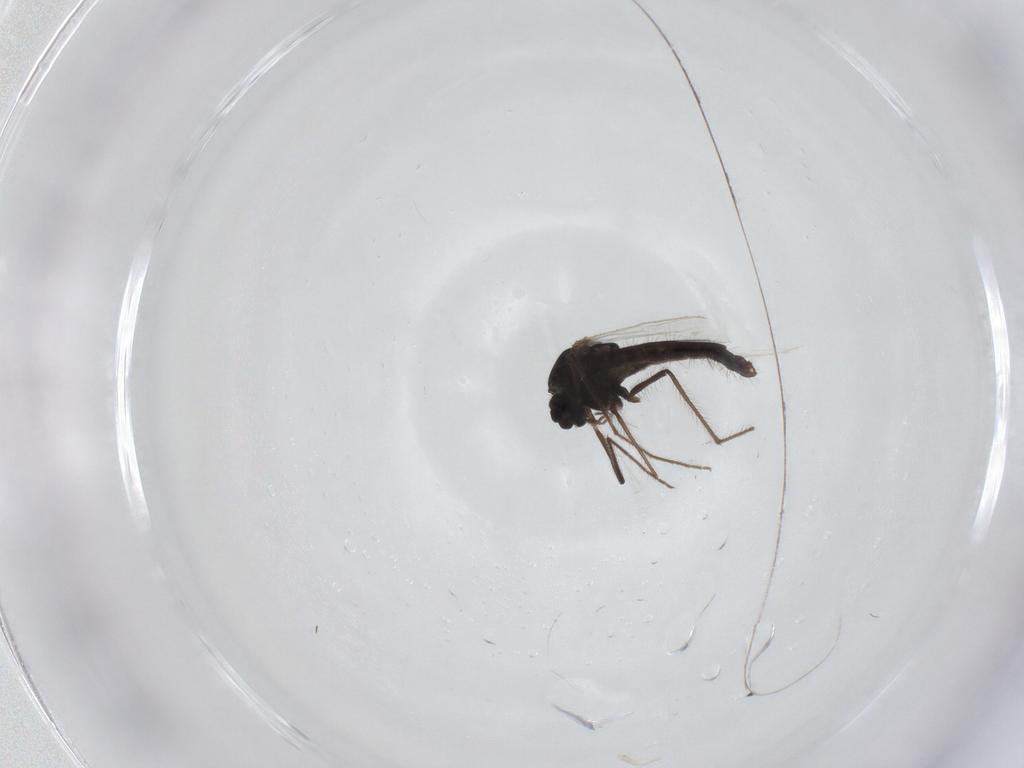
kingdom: Animalia
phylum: Arthropoda
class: Insecta
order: Diptera
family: Chironomidae
